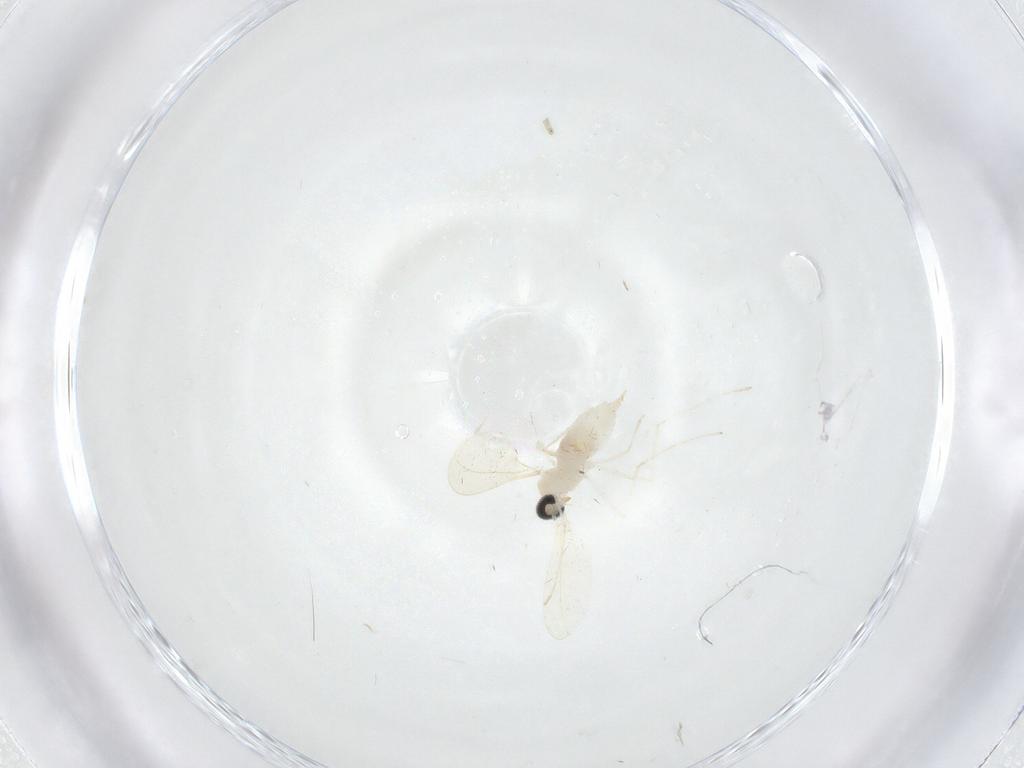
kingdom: Animalia
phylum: Arthropoda
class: Insecta
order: Diptera
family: Cecidomyiidae
